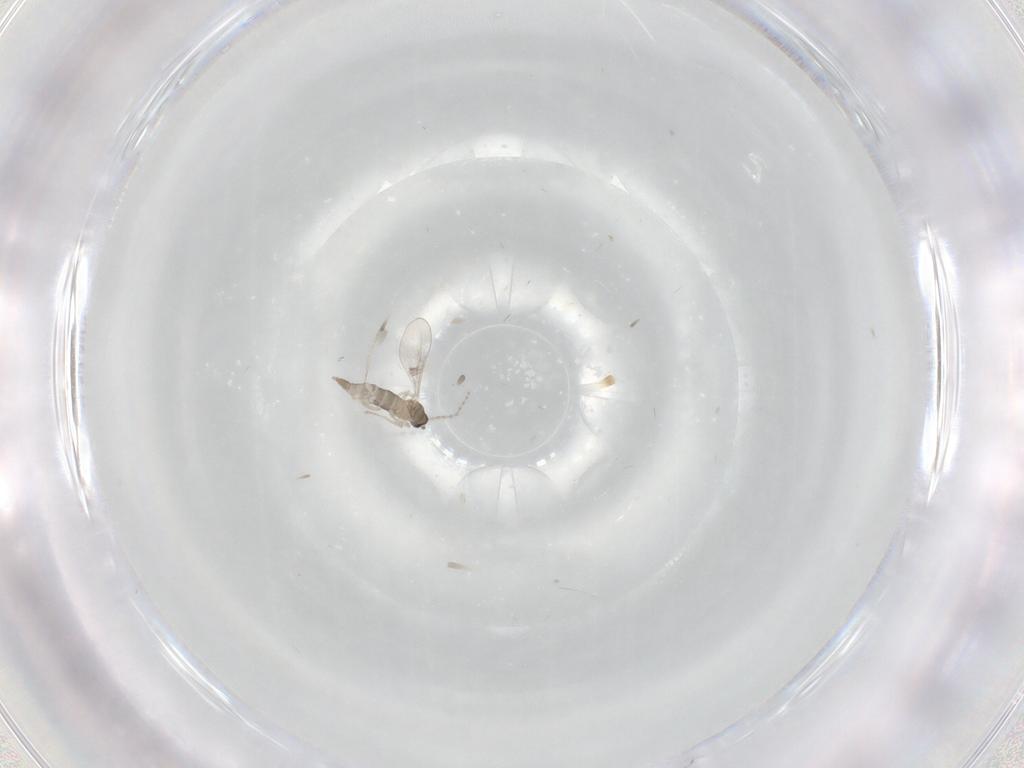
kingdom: Animalia
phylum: Arthropoda
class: Insecta
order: Diptera
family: Cecidomyiidae
